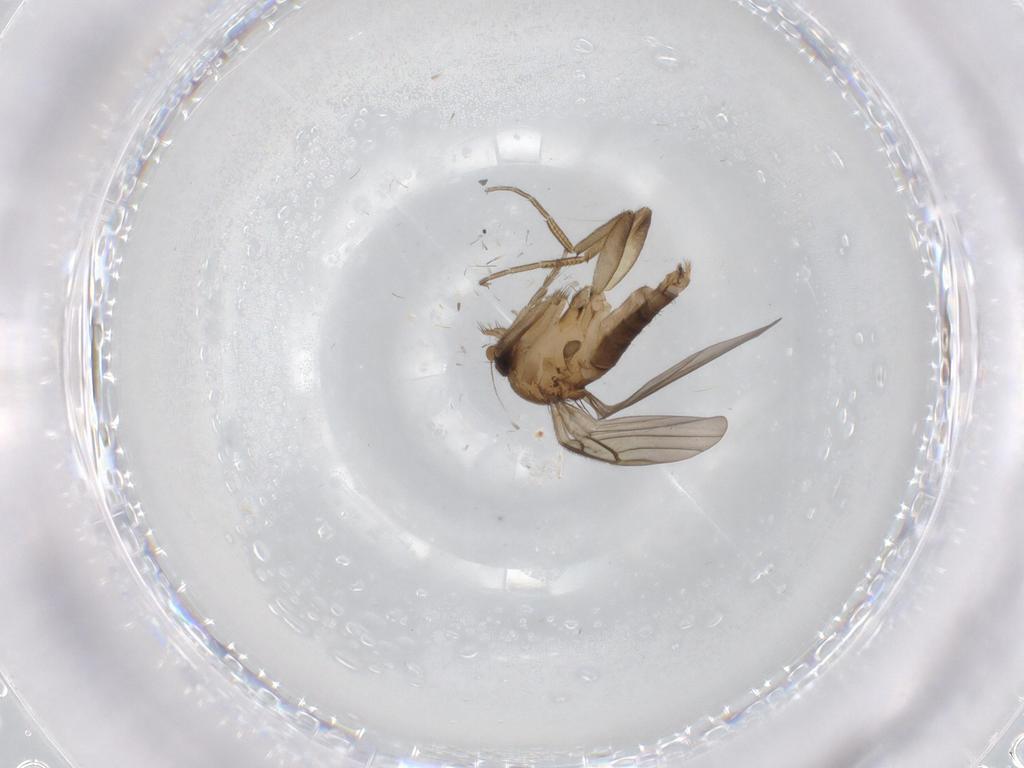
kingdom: Animalia
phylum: Arthropoda
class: Insecta
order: Diptera
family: Phoridae
